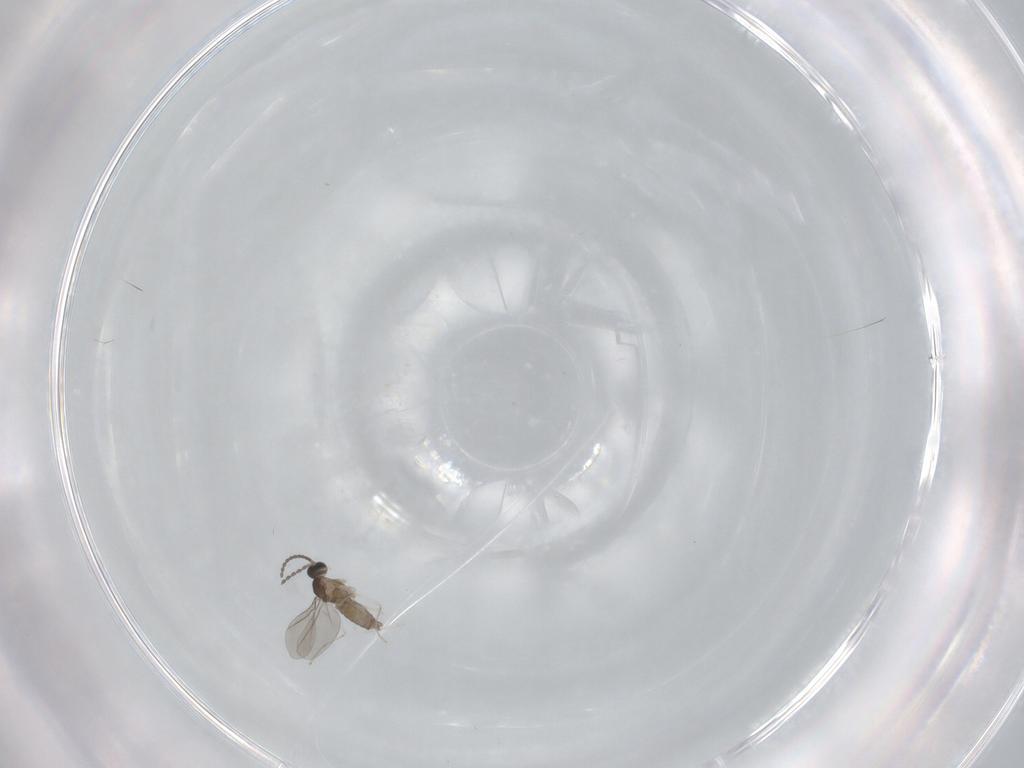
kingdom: Animalia
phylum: Arthropoda
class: Insecta
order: Diptera
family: Cecidomyiidae
